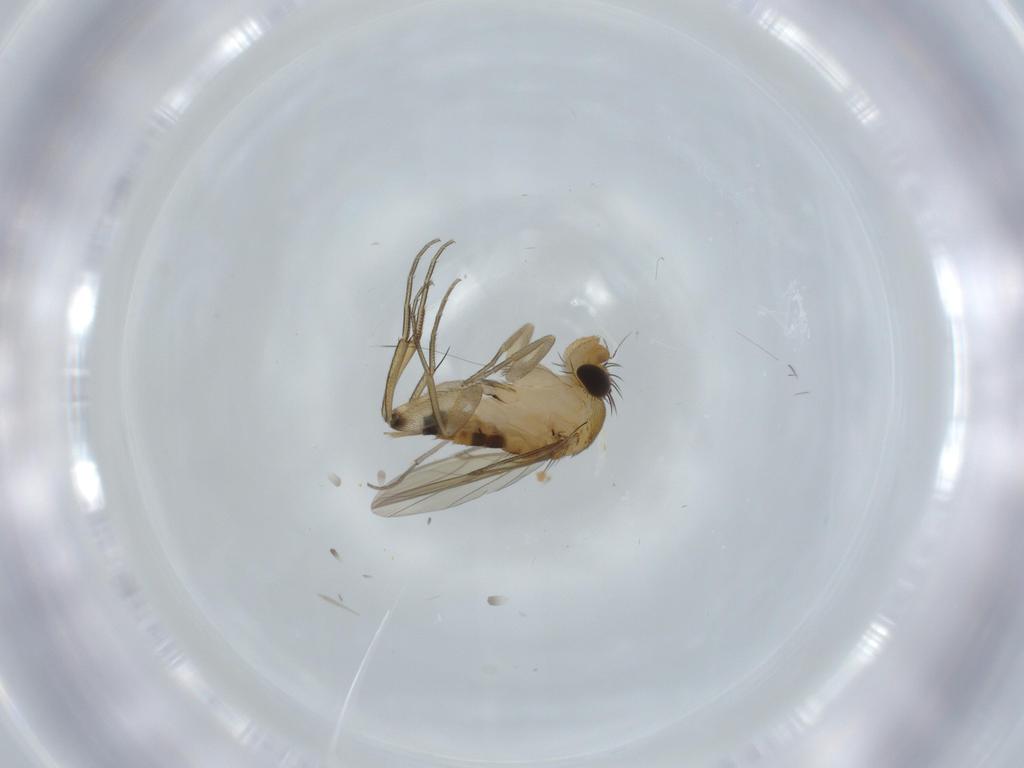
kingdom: Animalia
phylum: Arthropoda
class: Insecta
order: Diptera
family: Phoridae
